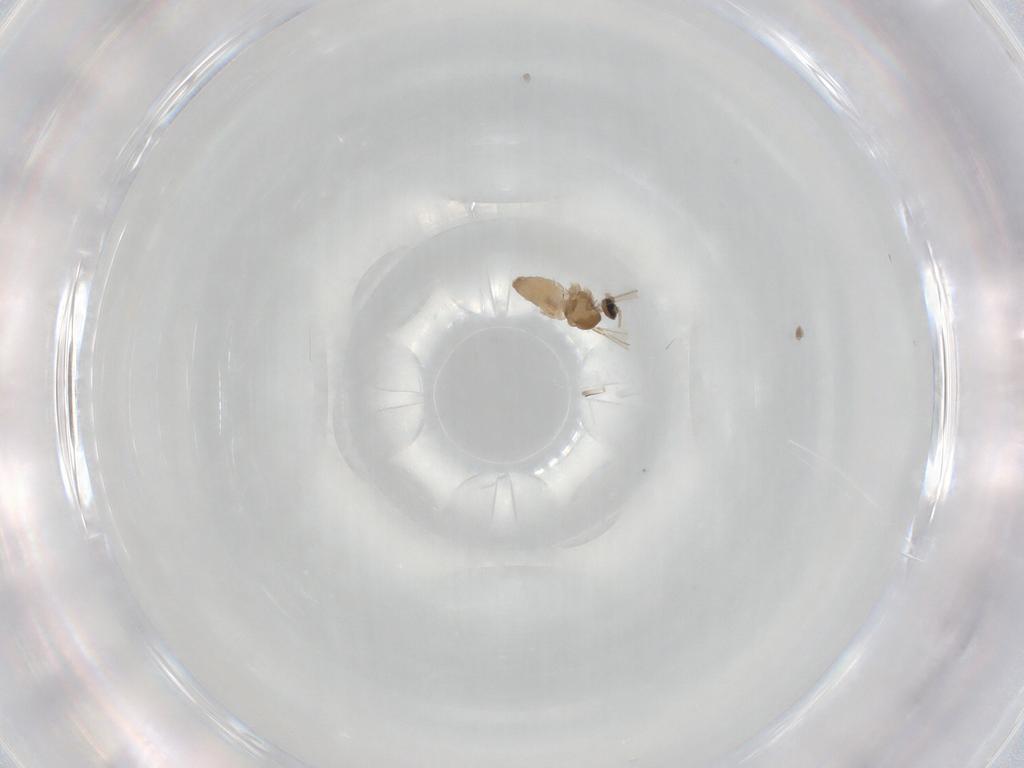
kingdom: Animalia
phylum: Arthropoda
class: Insecta
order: Diptera
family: Cecidomyiidae
